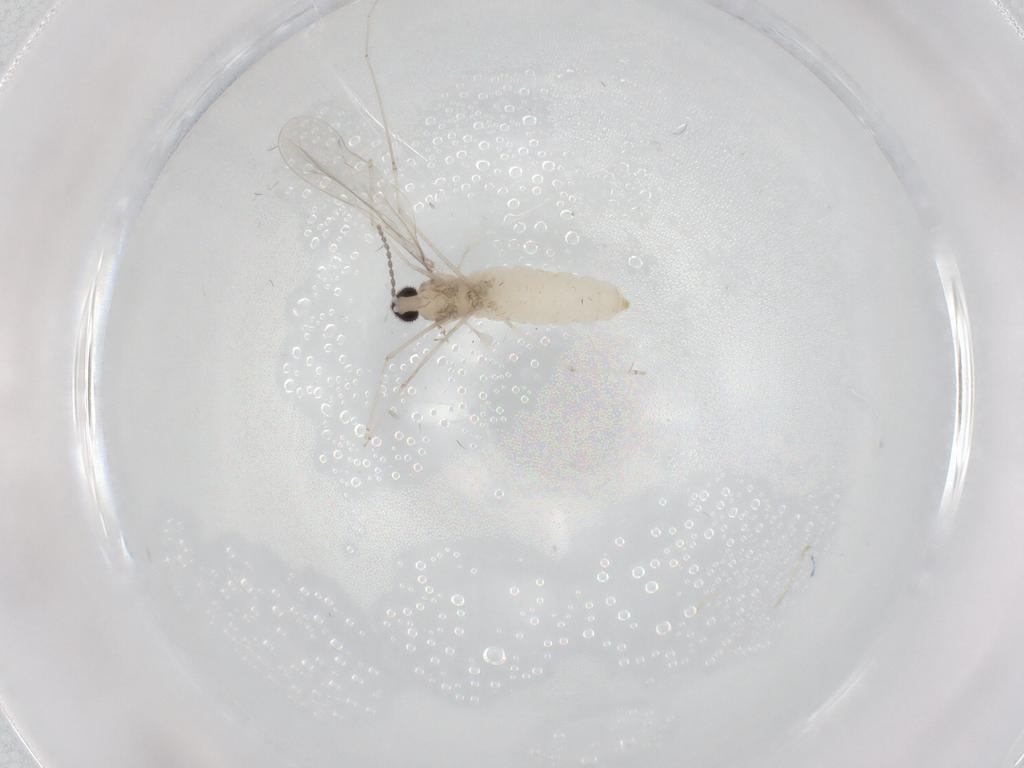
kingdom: Animalia
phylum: Arthropoda
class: Insecta
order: Diptera
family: Cecidomyiidae
